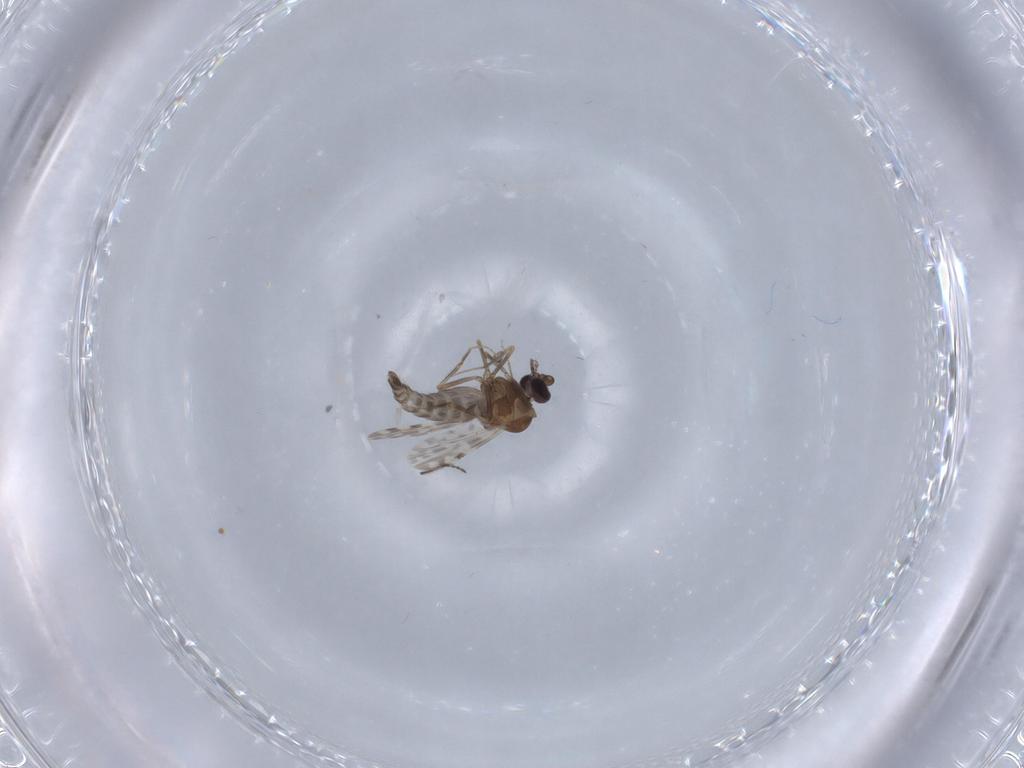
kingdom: Animalia
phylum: Arthropoda
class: Insecta
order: Diptera
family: Ceratopogonidae
